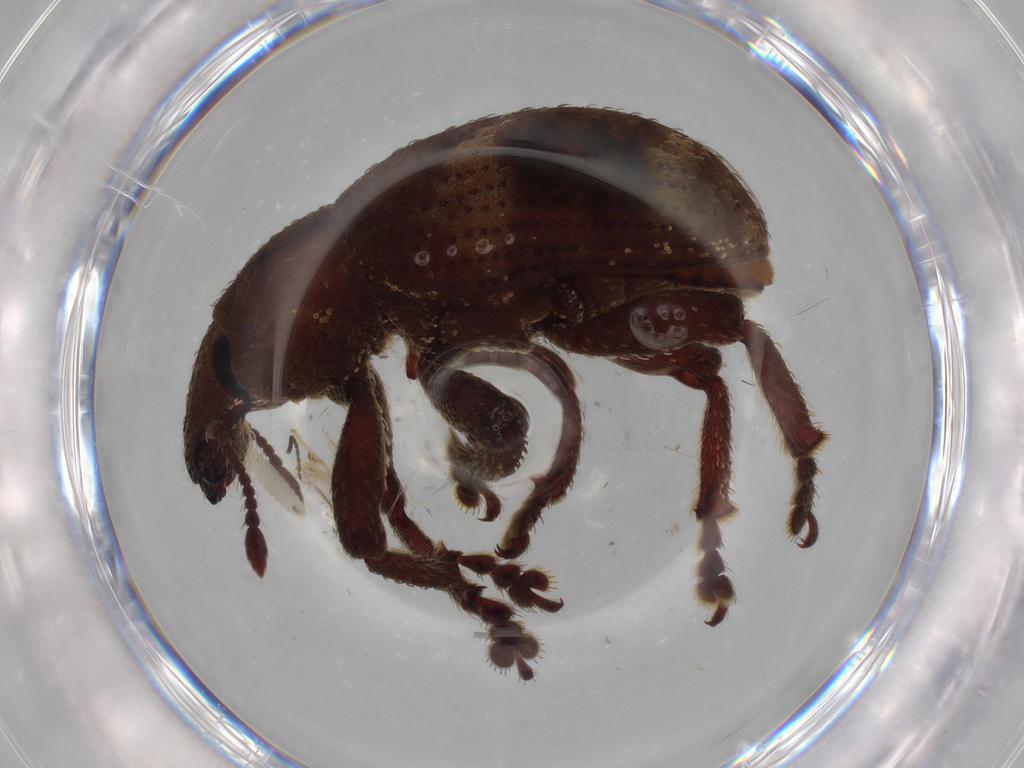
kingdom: Animalia
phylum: Arthropoda
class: Insecta
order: Coleoptera
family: Curculionidae
